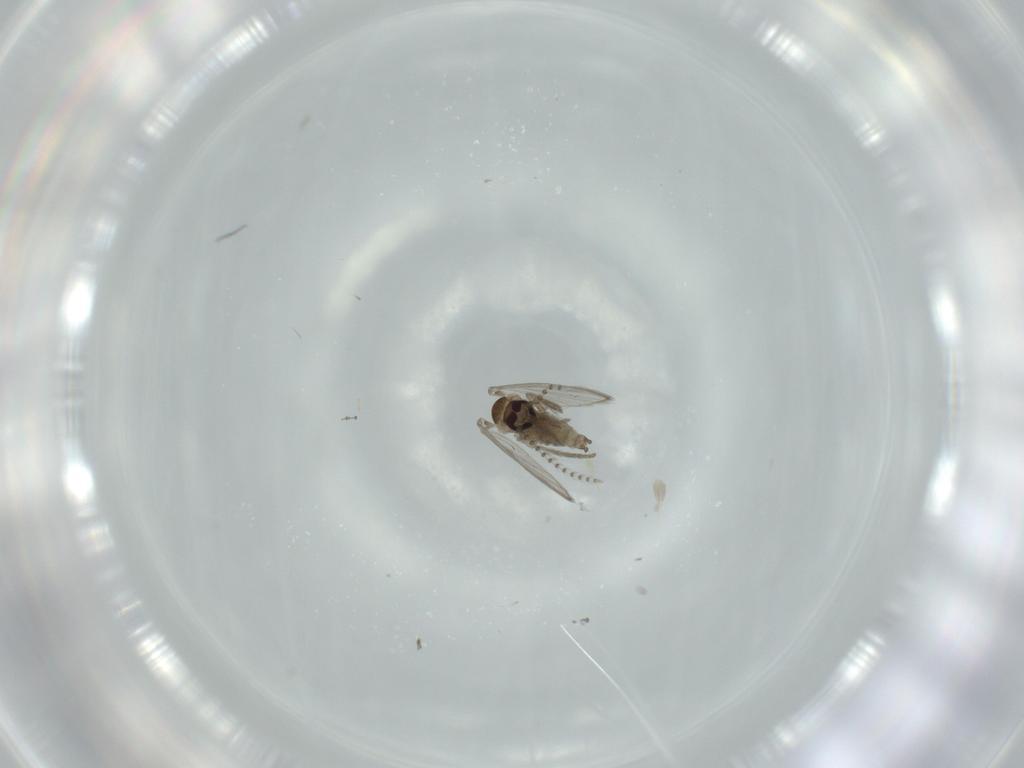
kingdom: Animalia
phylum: Arthropoda
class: Insecta
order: Diptera
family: Psychodidae
